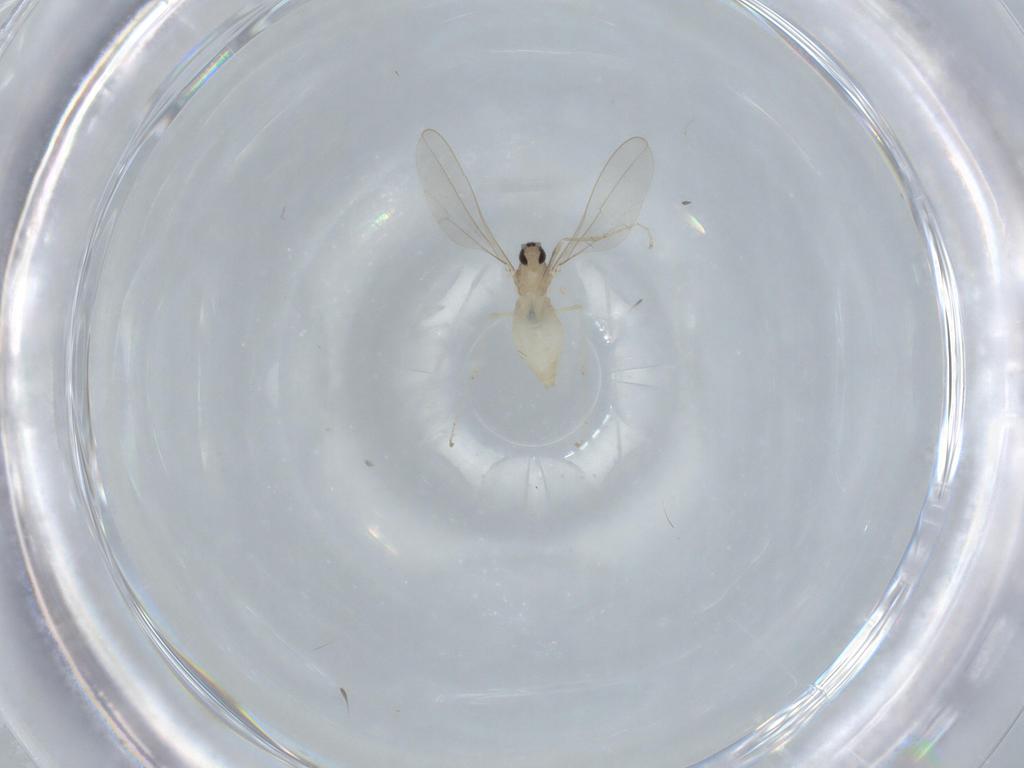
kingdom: Animalia
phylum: Arthropoda
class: Insecta
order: Diptera
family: Cecidomyiidae
